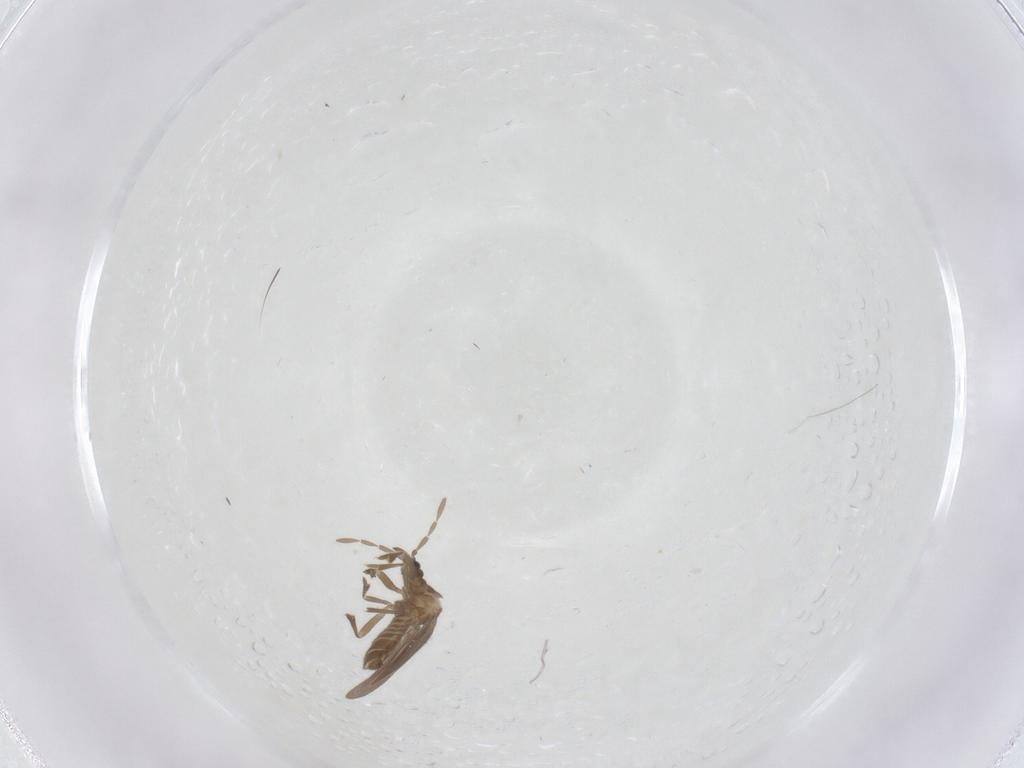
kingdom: Animalia
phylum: Arthropoda
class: Insecta
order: Hemiptera
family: Enicocephalidae
